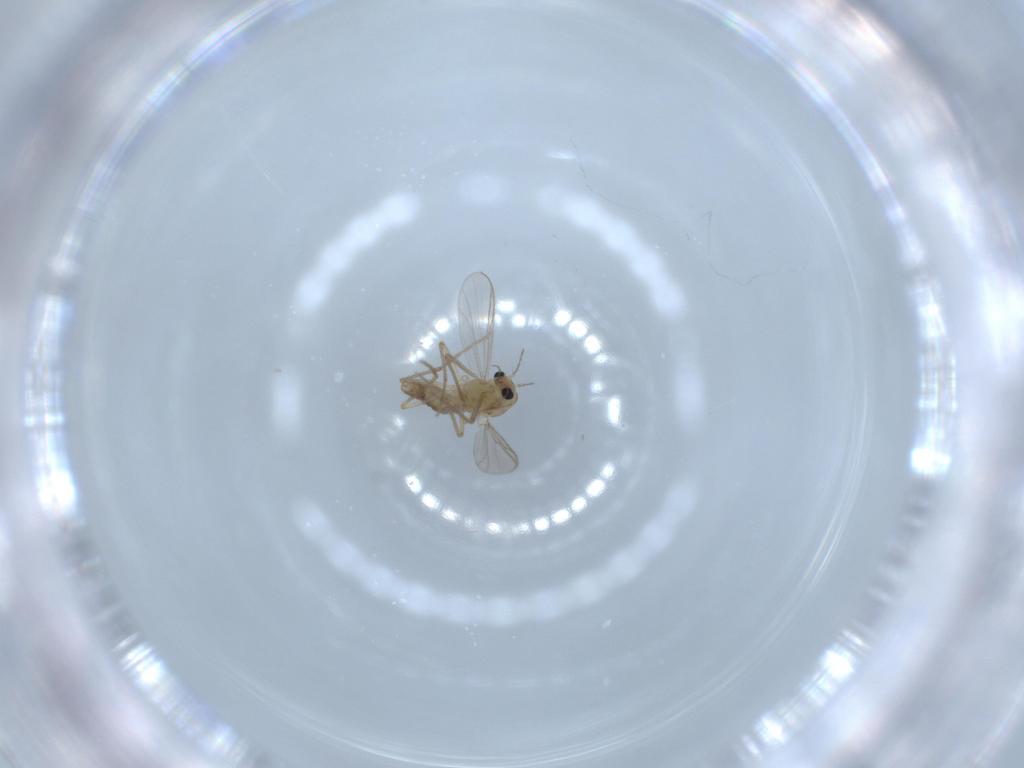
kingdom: Animalia
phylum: Arthropoda
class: Insecta
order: Diptera
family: Chironomidae
